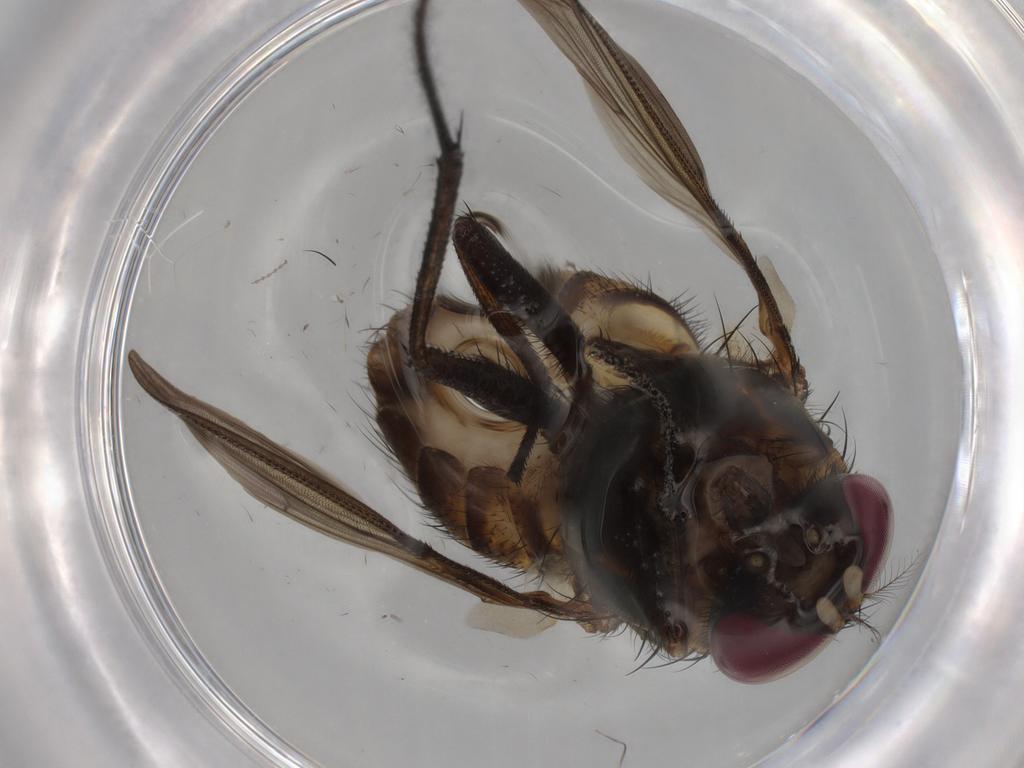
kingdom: Animalia
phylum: Arthropoda
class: Insecta
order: Diptera
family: Muscidae
